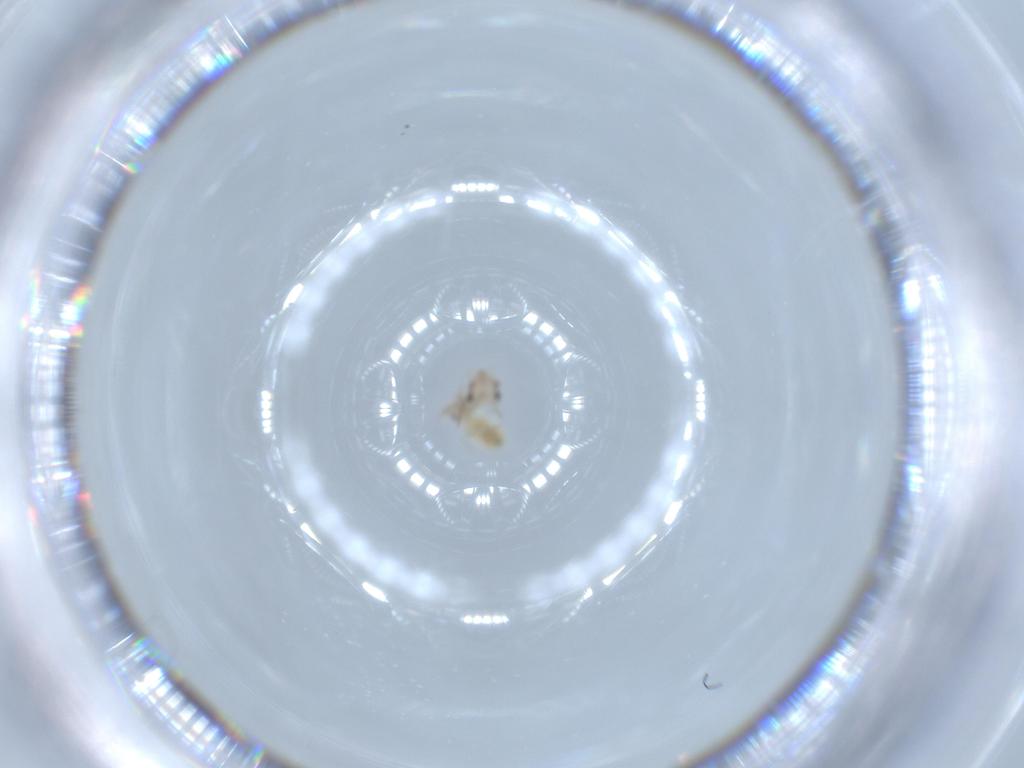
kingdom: Animalia
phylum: Arthropoda
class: Insecta
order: Psocodea
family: Lepidopsocidae
